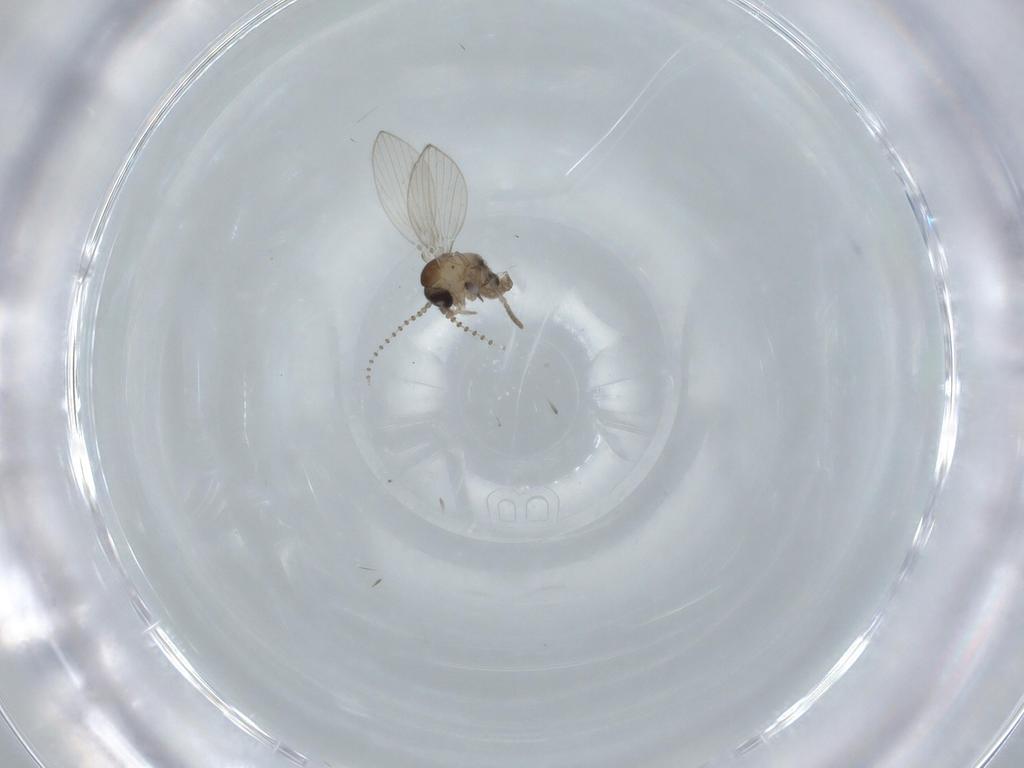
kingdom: Animalia
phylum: Arthropoda
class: Insecta
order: Diptera
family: Psychodidae
